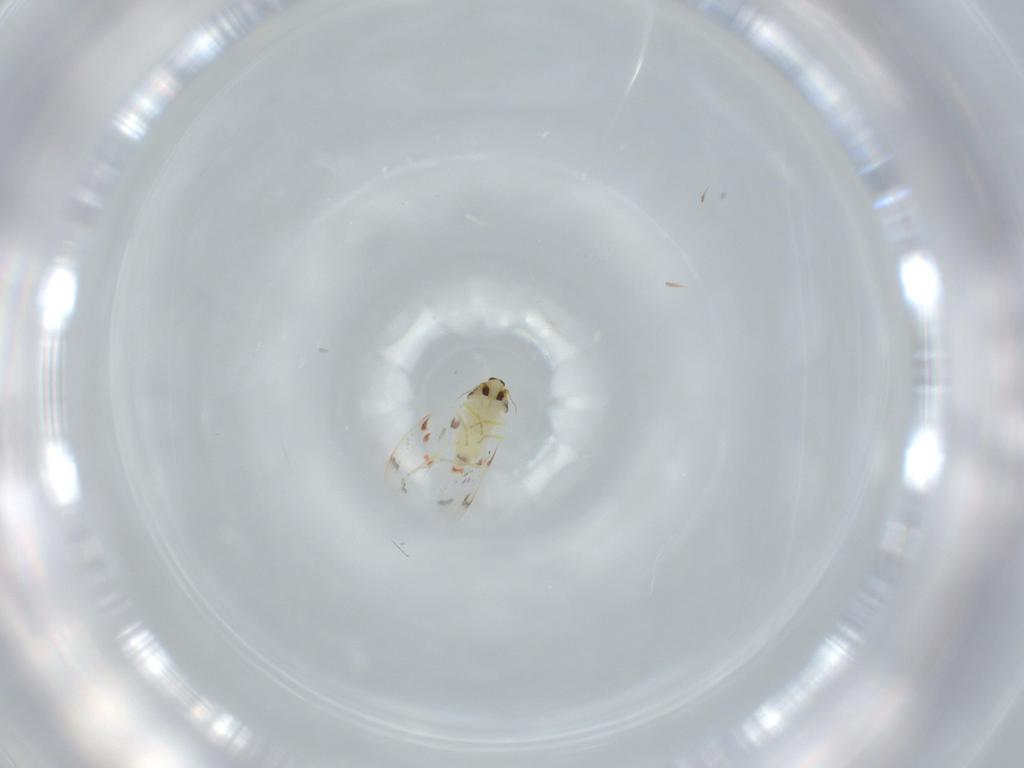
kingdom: Animalia
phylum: Arthropoda
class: Insecta
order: Hemiptera
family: Aleyrodidae
